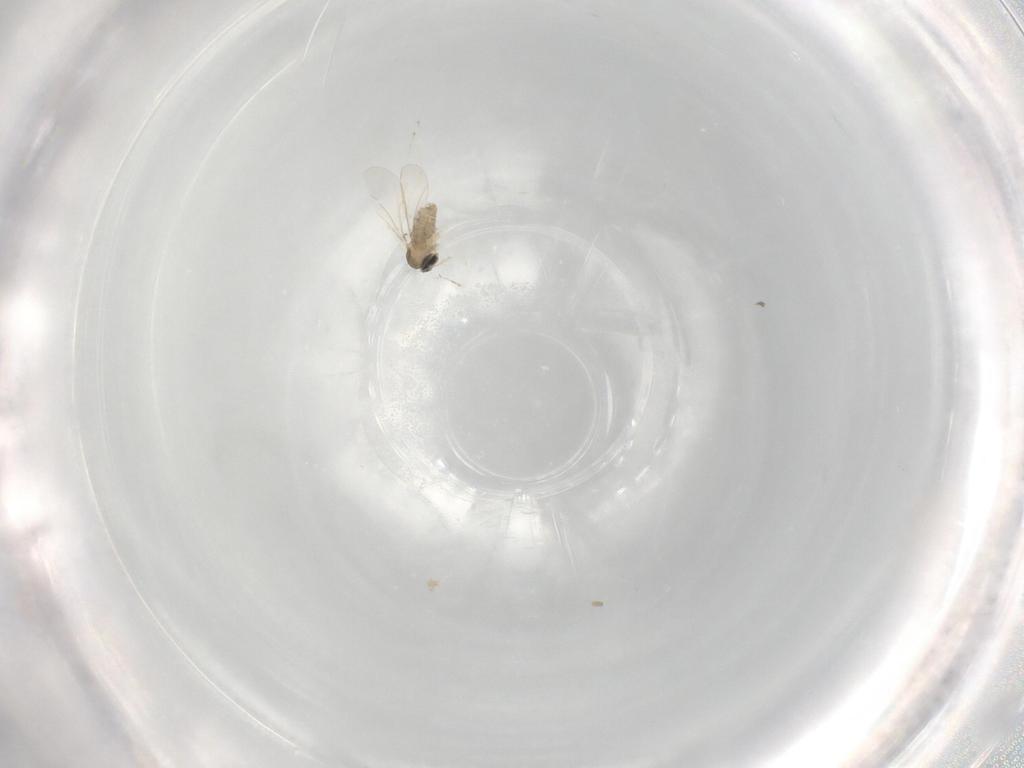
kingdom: Animalia
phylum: Arthropoda
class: Insecta
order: Diptera
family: Cecidomyiidae
